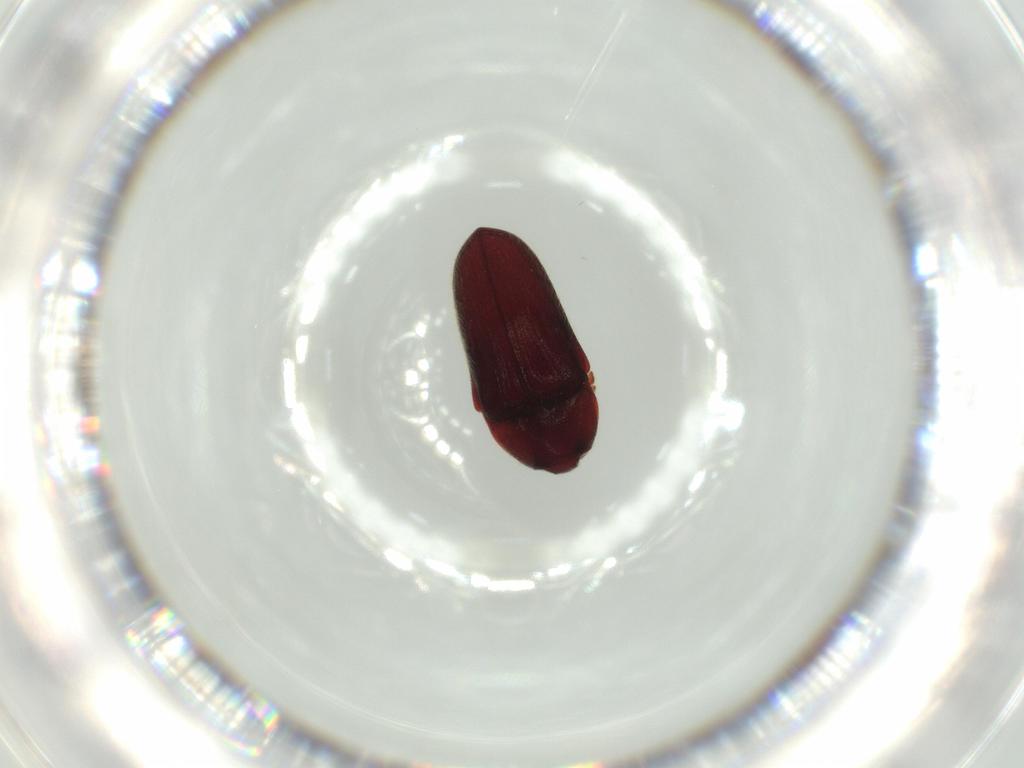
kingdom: Animalia
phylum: Arthropoda
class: Insecta
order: Coleoptera
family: Throscidae
